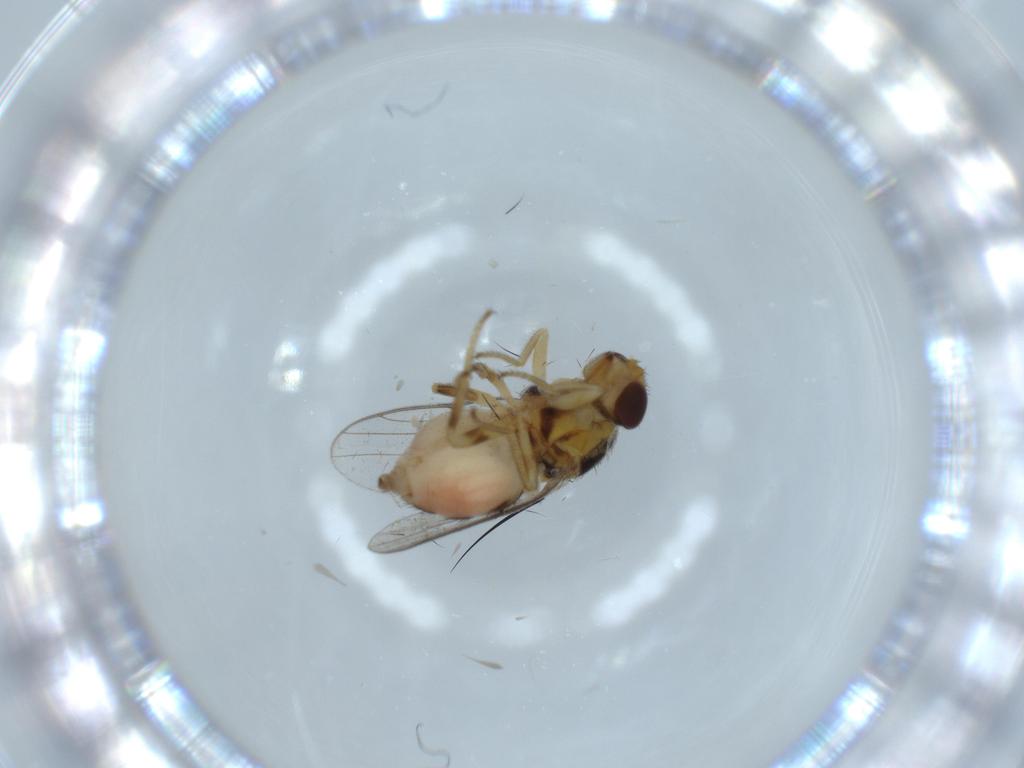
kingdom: Animalia
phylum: Arthropoda
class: Insecta
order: Diptera
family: Chloropidae
